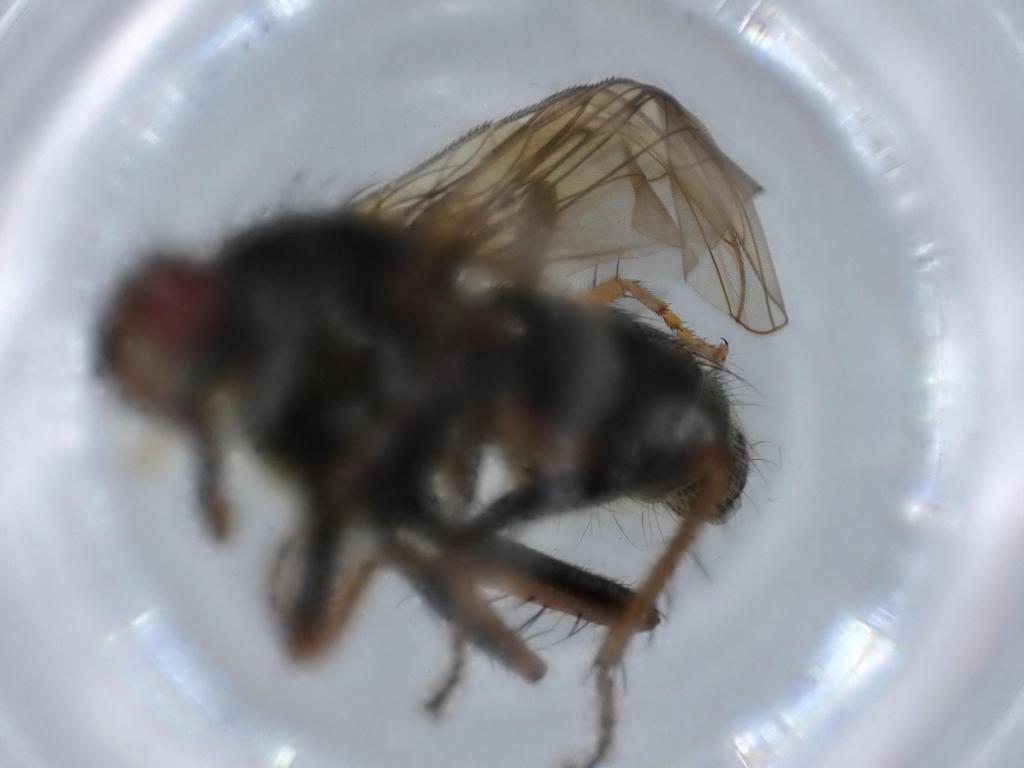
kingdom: Animalia
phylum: Arthropoda
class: Insecta
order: Diptera
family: Scathophagidae
